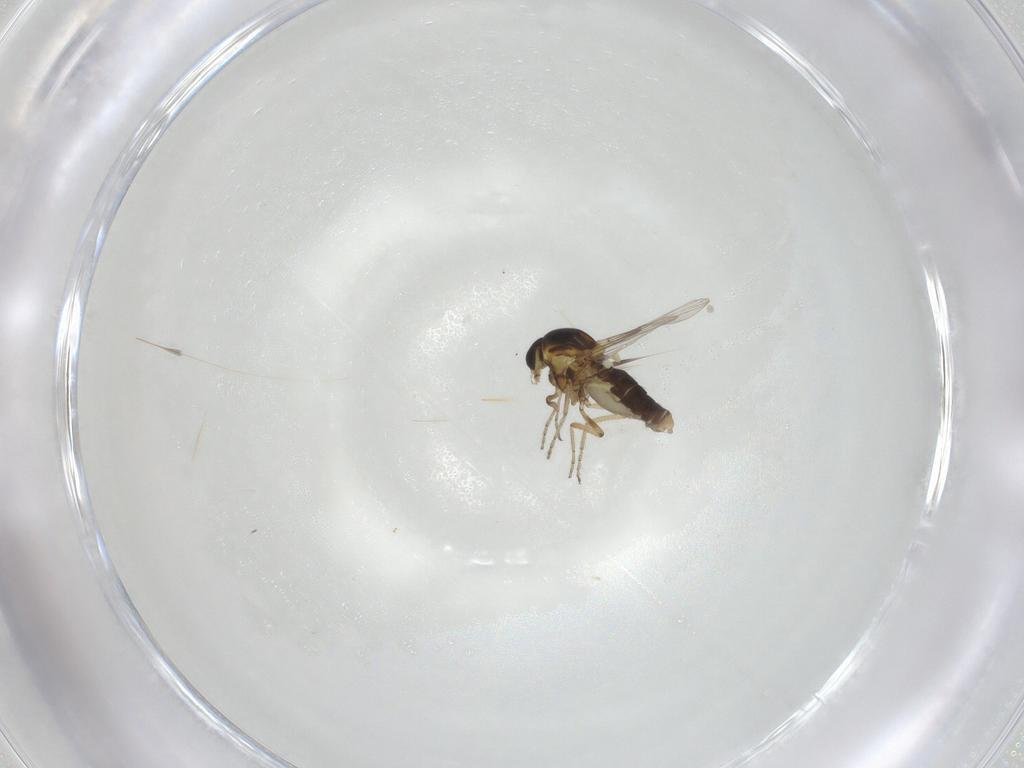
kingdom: Animalia
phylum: Arthropoda
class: Insecta
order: Diptera
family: Ceratopogonidae
